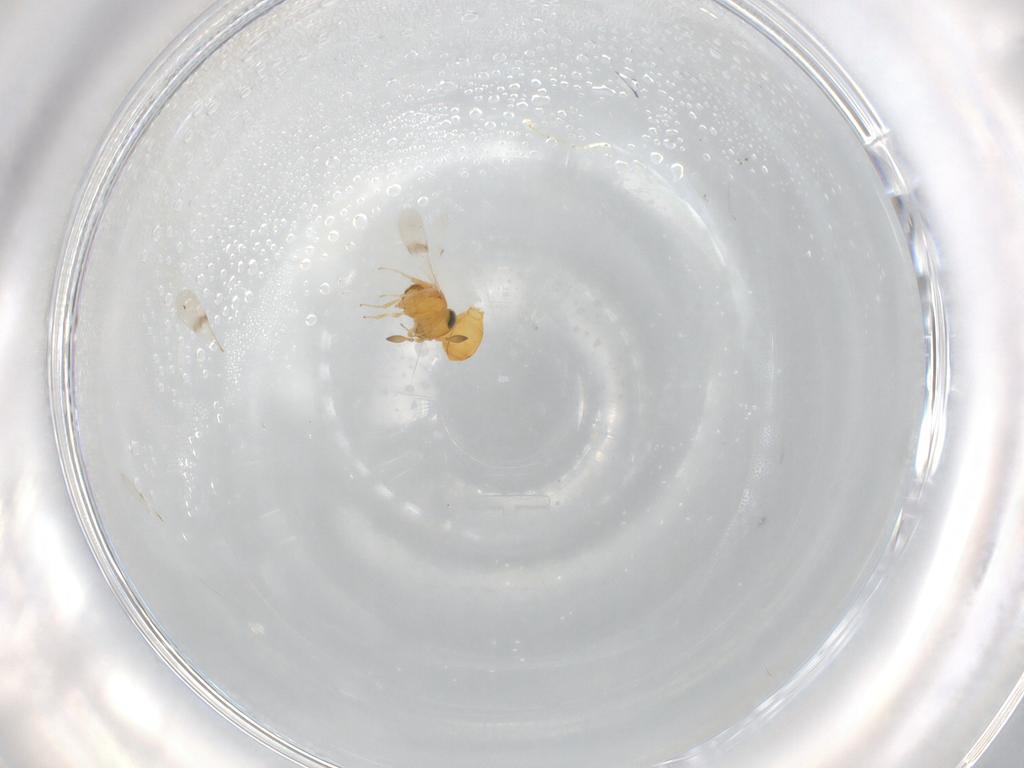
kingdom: Animalia
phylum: Arthropoda
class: Insecta
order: Hymenoptera
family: Scelionidae
